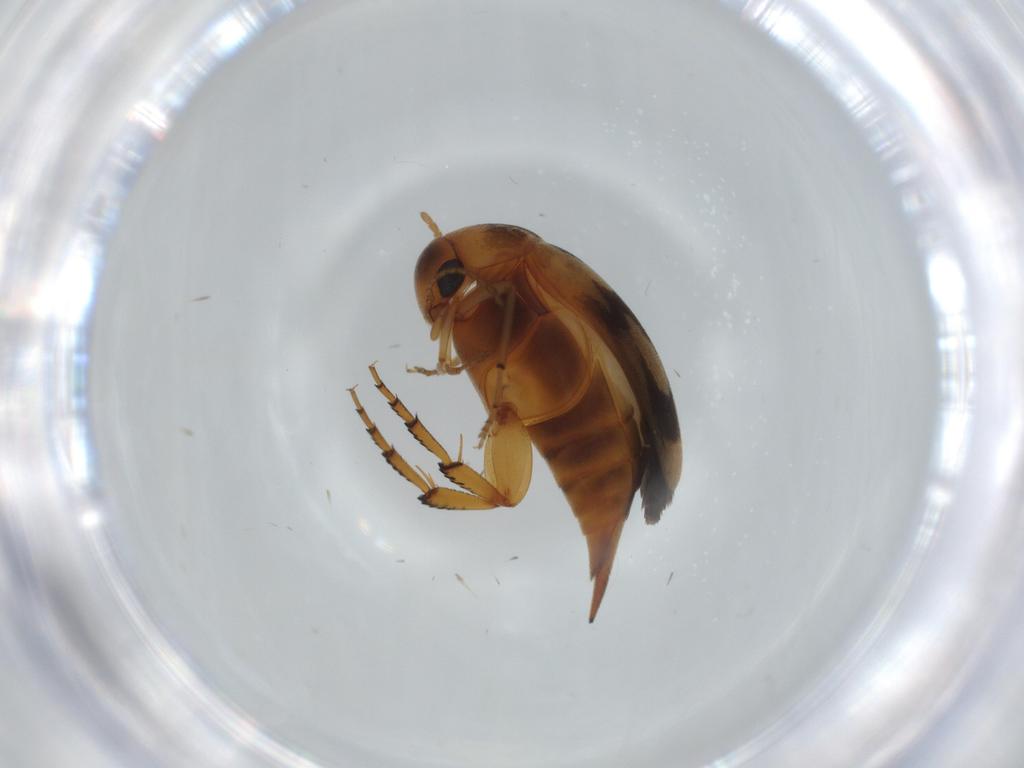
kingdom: Animalia
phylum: Arthropoda
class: Insecta
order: Coleoptera
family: Mordellidae
